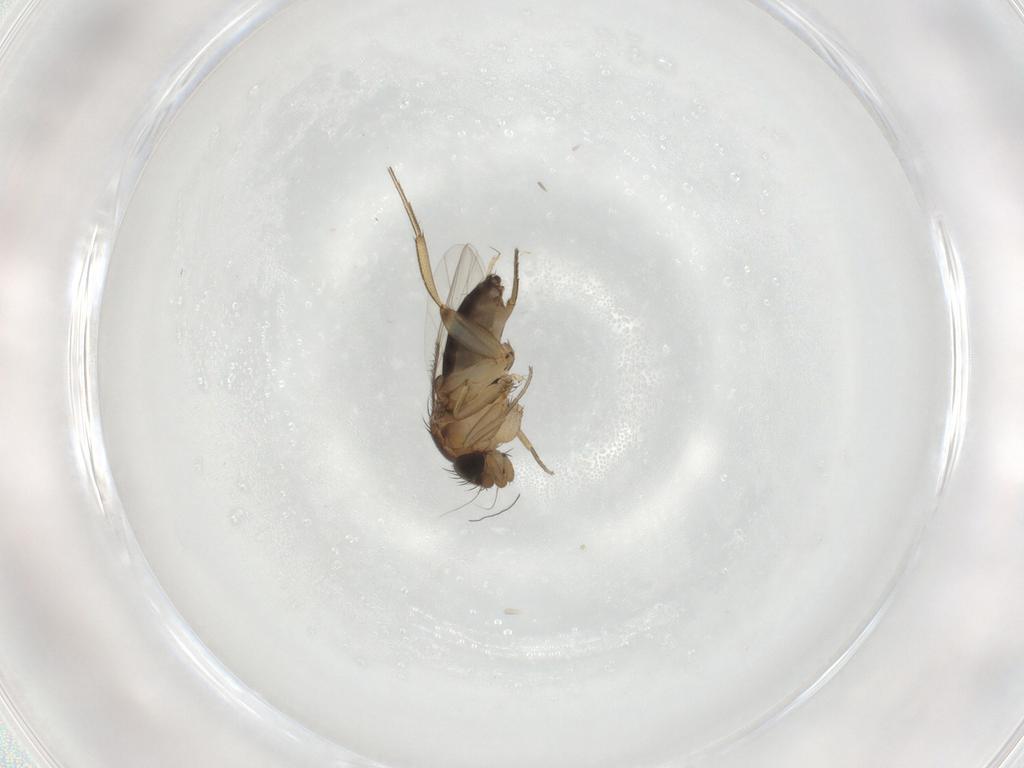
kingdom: Animalia
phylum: Arthropoda
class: Insecta
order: Diptera
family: Phoridae
